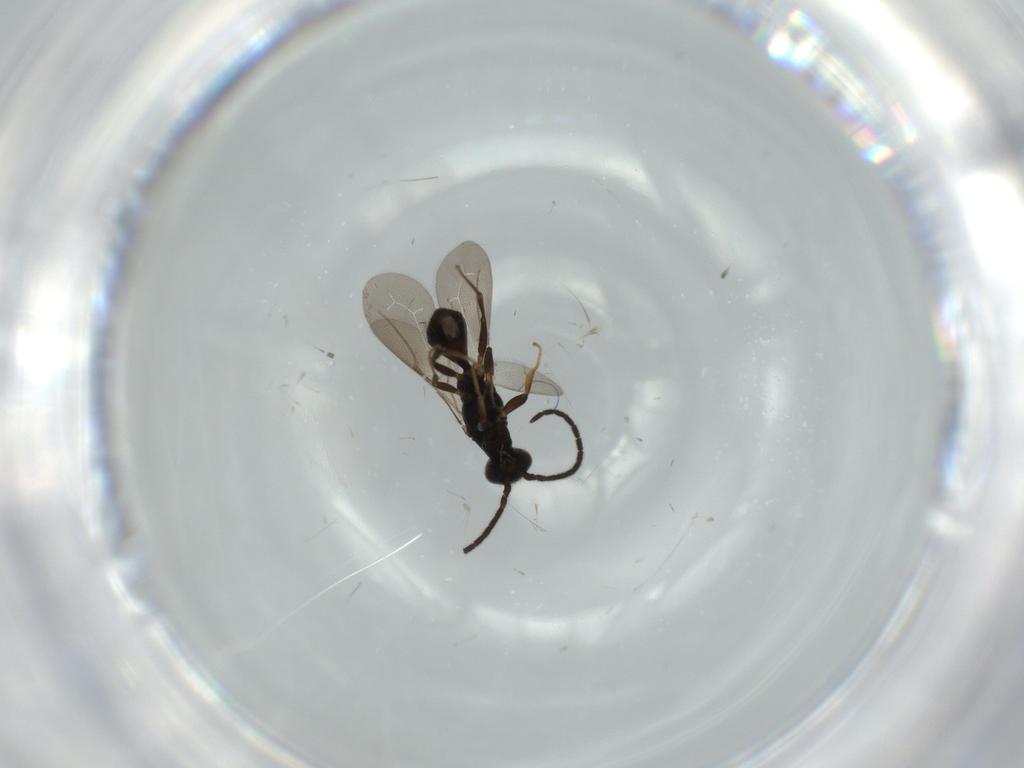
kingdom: Animalia
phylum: Arthropoda
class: Insecta
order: Hymenoptera
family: Bethylidae
